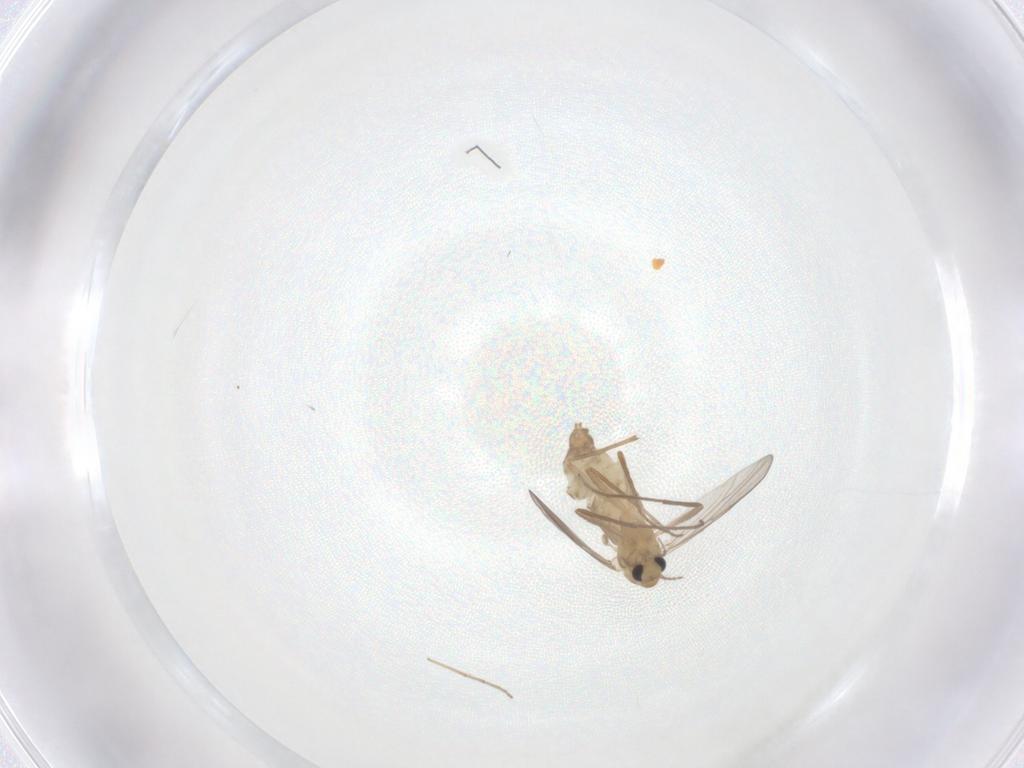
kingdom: Animalia
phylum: Arthropoda
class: Insecta
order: Diptera
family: Chironomidae
